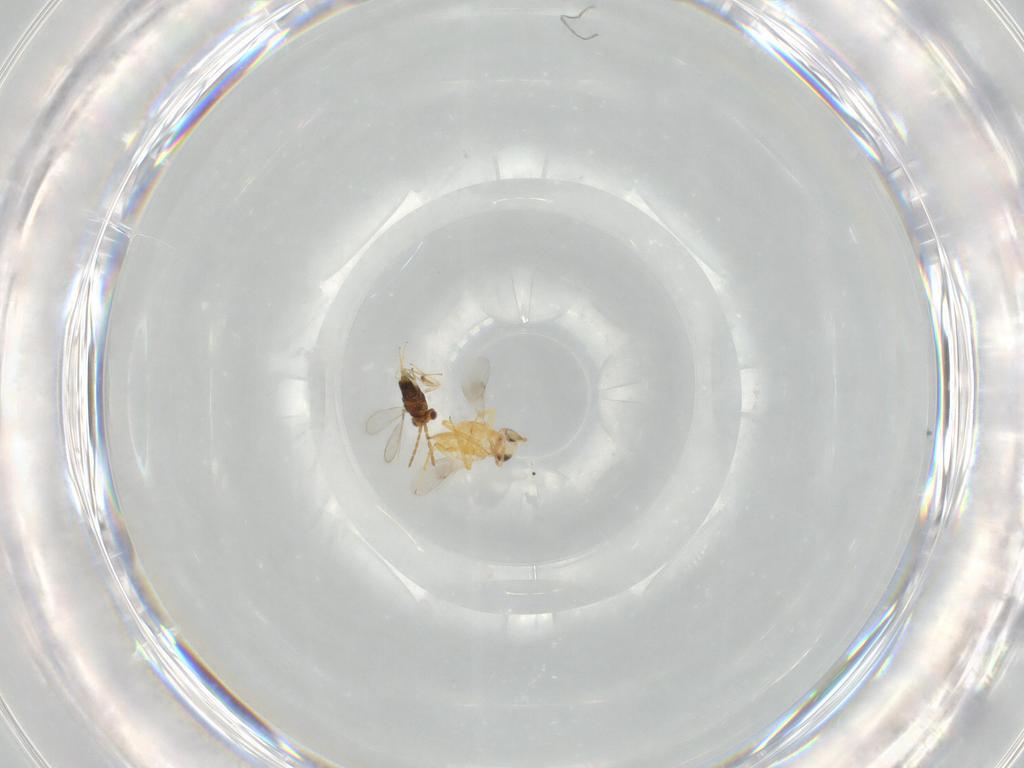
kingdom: Animalia
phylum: Arthropoda
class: Insecta
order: Hymenoptera
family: Aphelinidae
